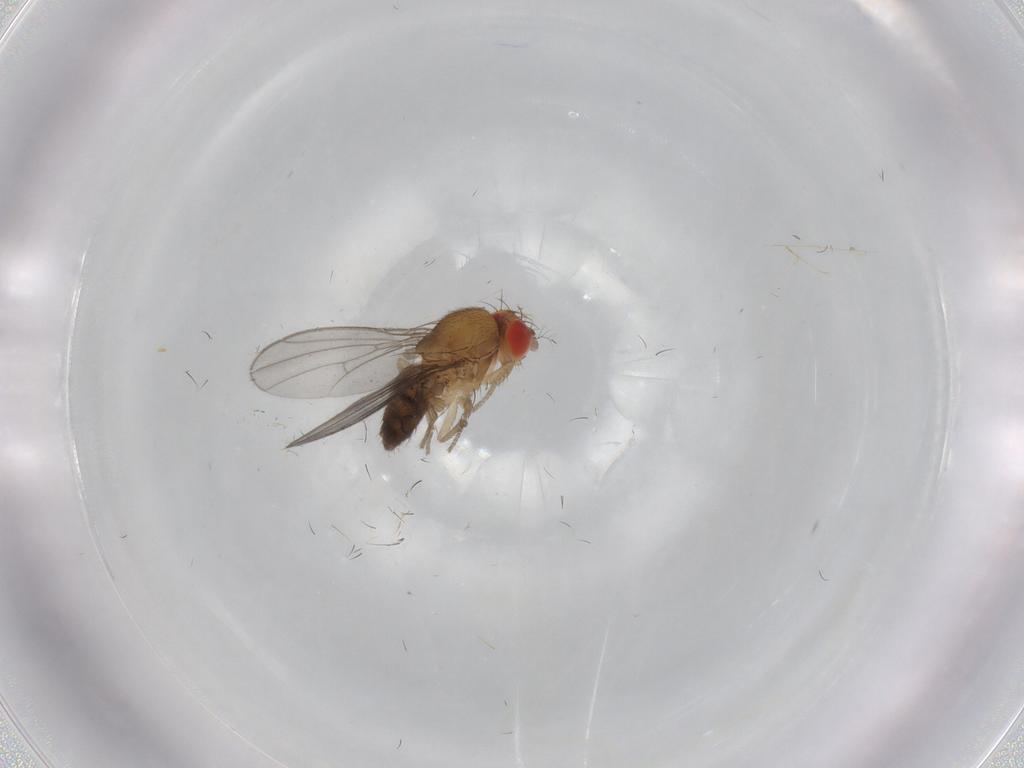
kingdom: Animalia
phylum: Arthropoda
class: Insecta
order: Diptera
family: Drosophilidae
